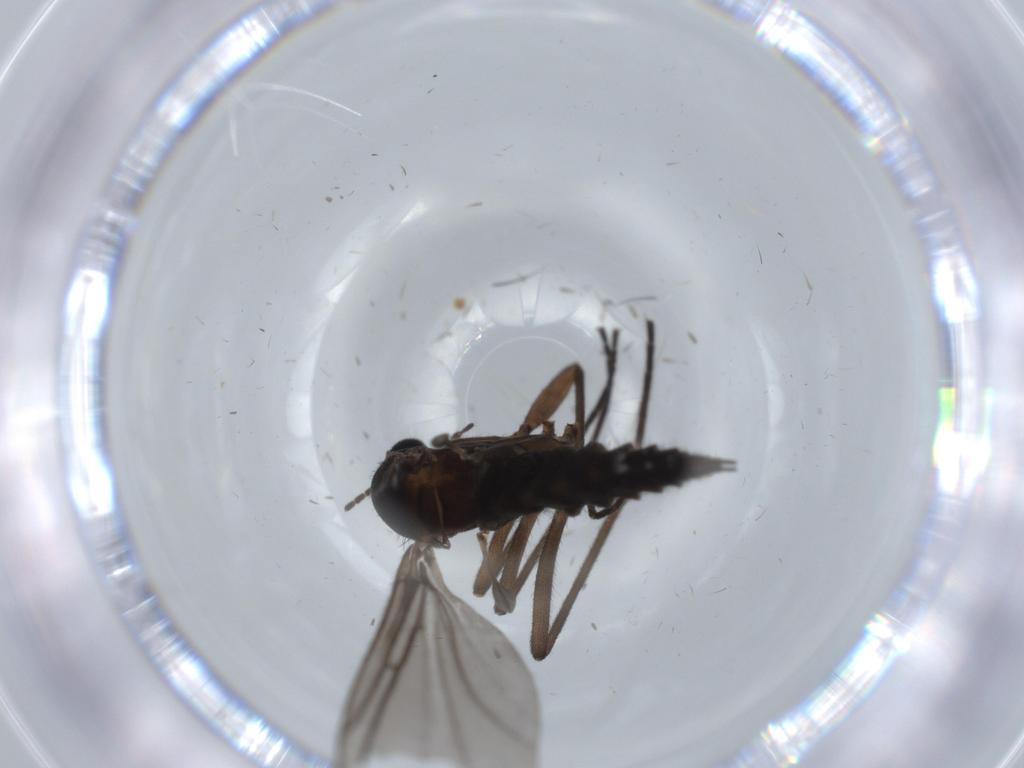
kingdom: Animalia
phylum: Arthropoda
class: Insecta
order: Diptera
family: Sciaridae
